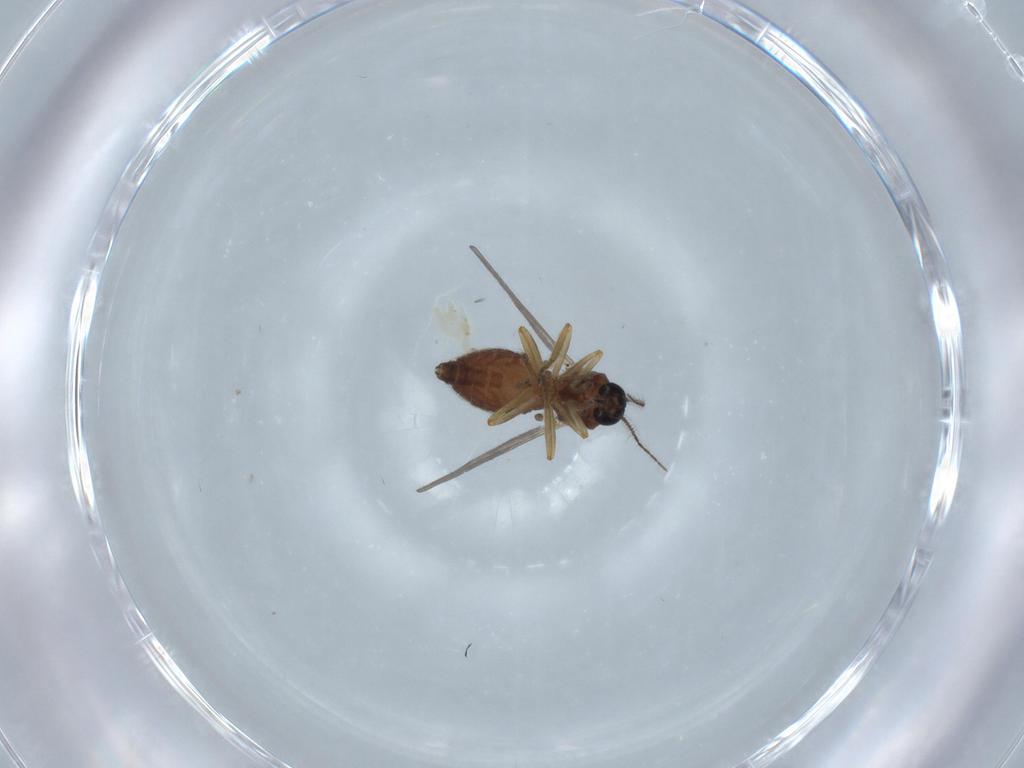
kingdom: Animalia
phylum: Arthropoda
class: Insecta
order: Diptera
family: Ceratopogonidae
